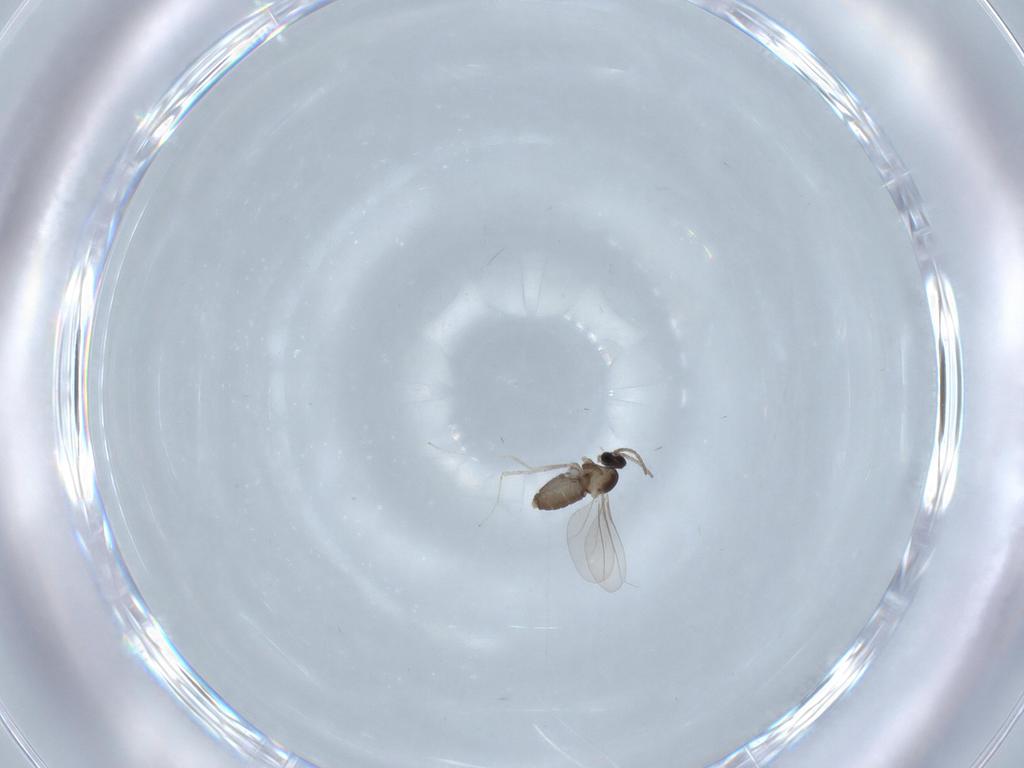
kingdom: Animalia
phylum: Arthropoda
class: Insecta
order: Diptera
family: Cecidomyiidae
